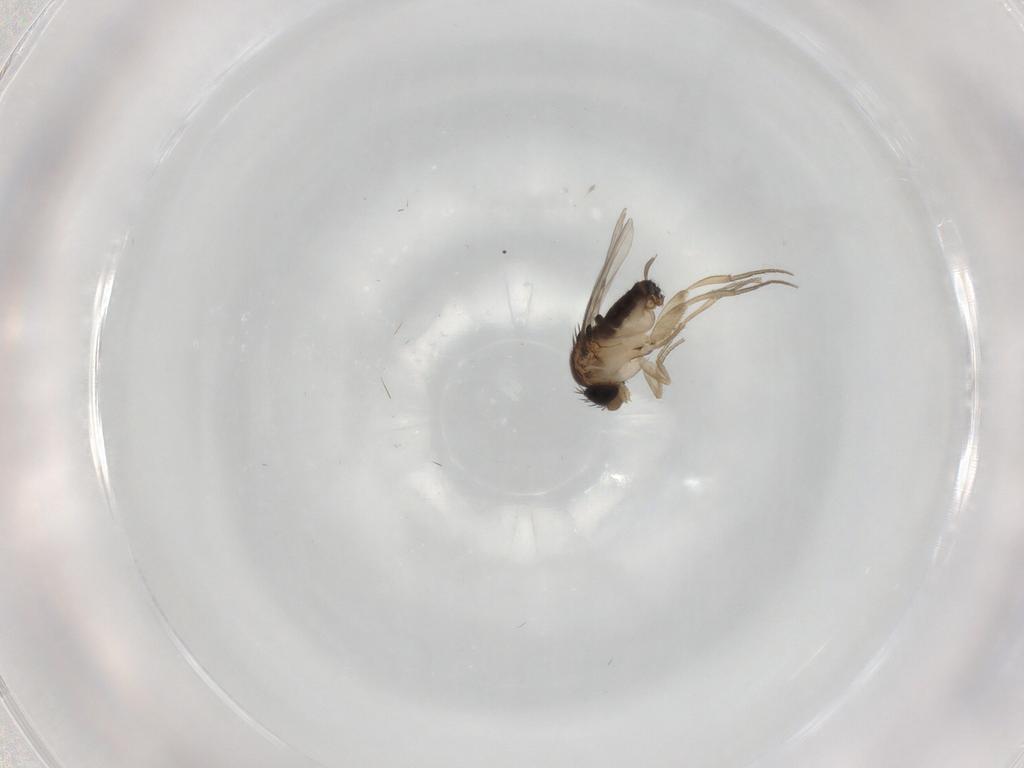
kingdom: Animalia
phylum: Arthropoda
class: Insecta
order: Diptera
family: Phoridae
